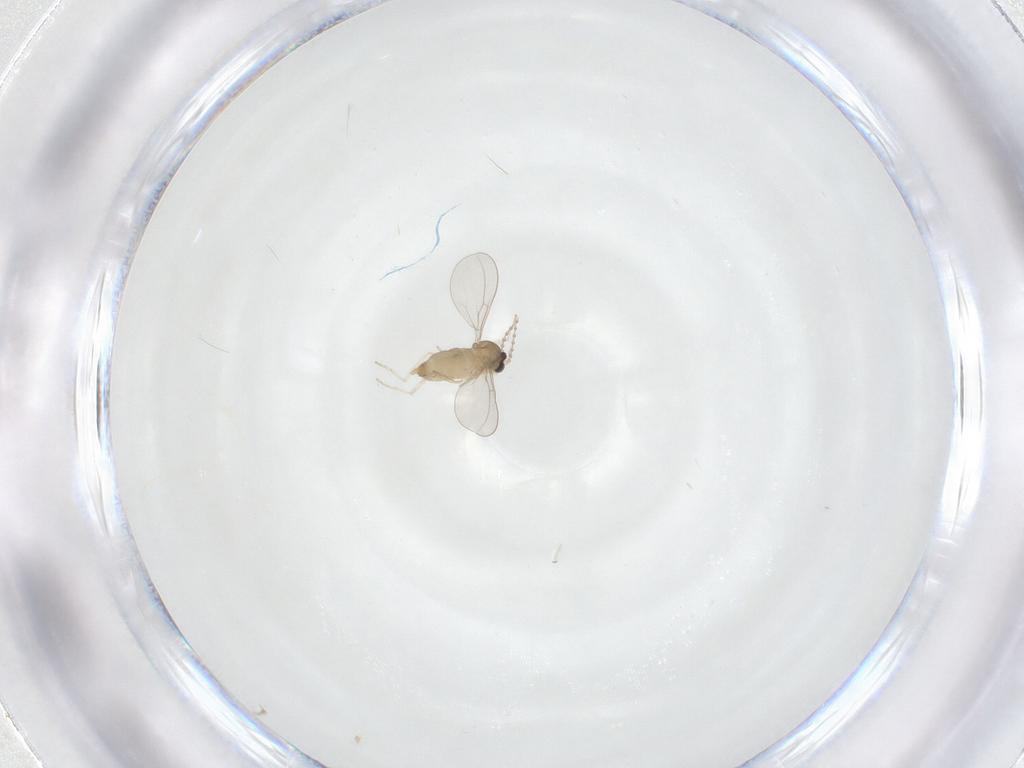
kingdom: Animalia
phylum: Arthropoda
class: Insecta
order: Diptera
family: Cecidomyiidae
